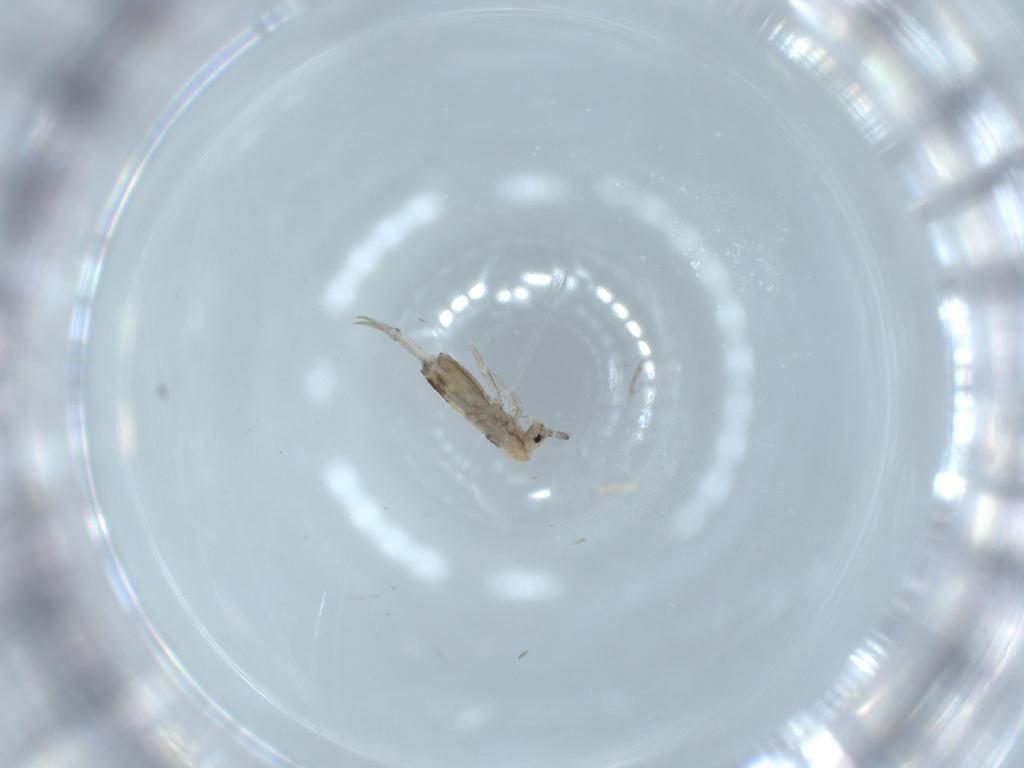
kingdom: Animalia
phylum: Arthropoda
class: Collembola
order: Entomobryomorpha
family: Entomobryidae
